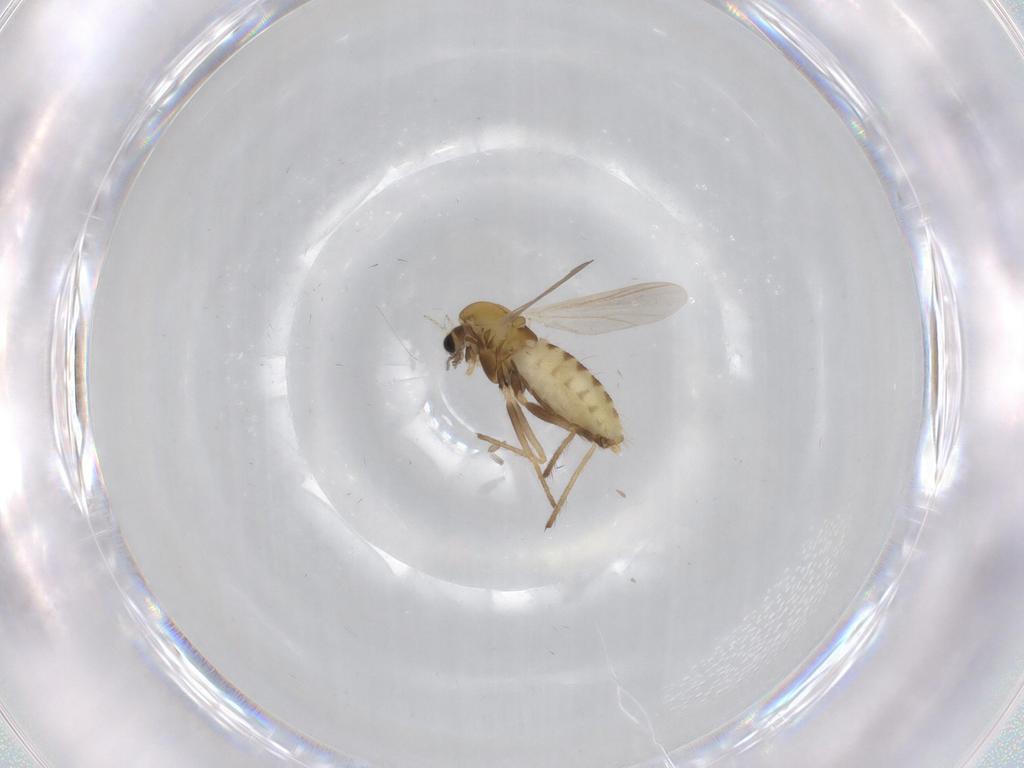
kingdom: Animalia
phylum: Arthropoda
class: Insecta
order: Diptera
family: Chironomidae
